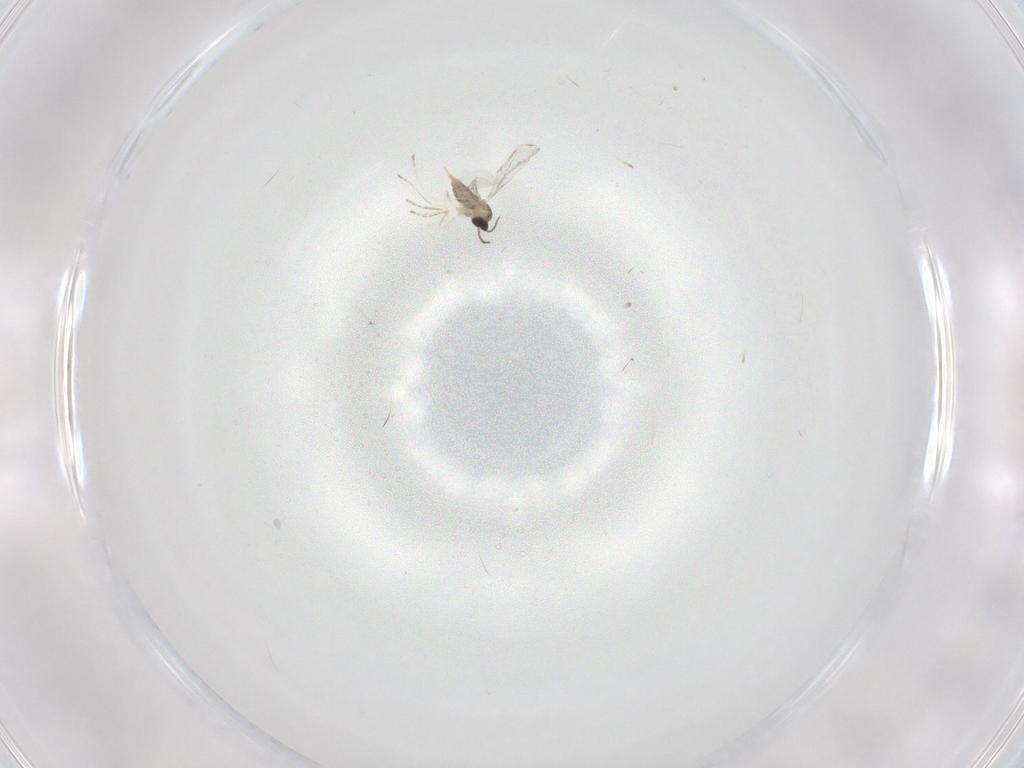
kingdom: Animalia
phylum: Arthropoda
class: Insecta
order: Diptera
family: Cecidomyiidae
